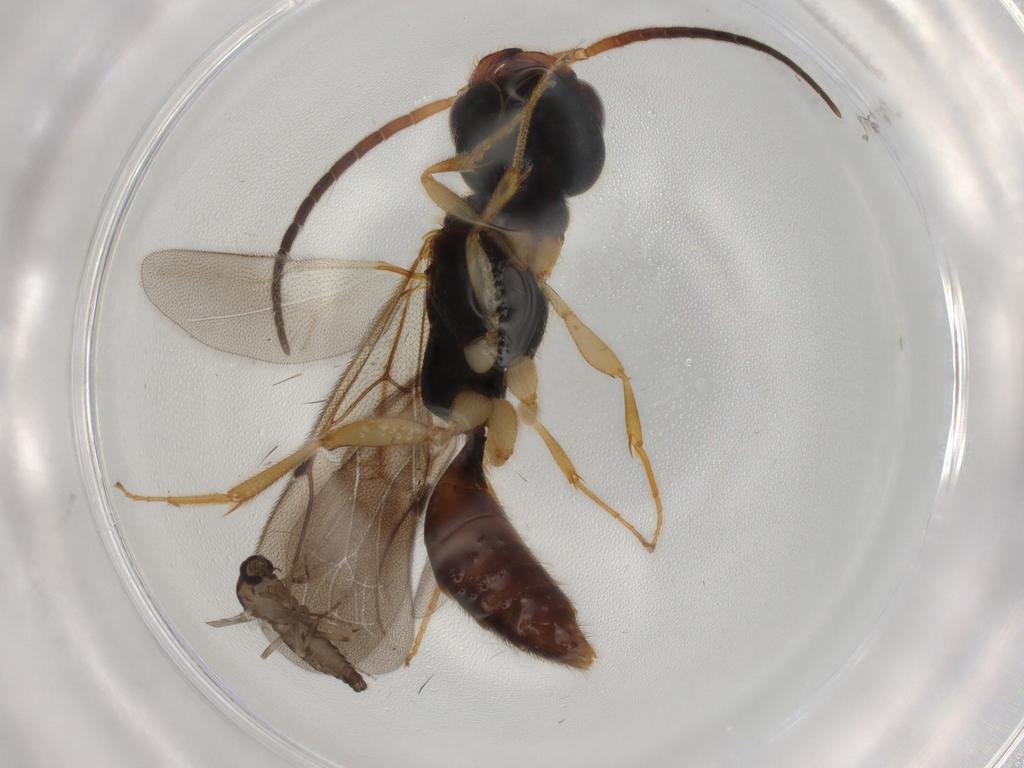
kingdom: Animalia
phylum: Arthropoda
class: Insecta
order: Diptera
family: Ceratopogonidae
